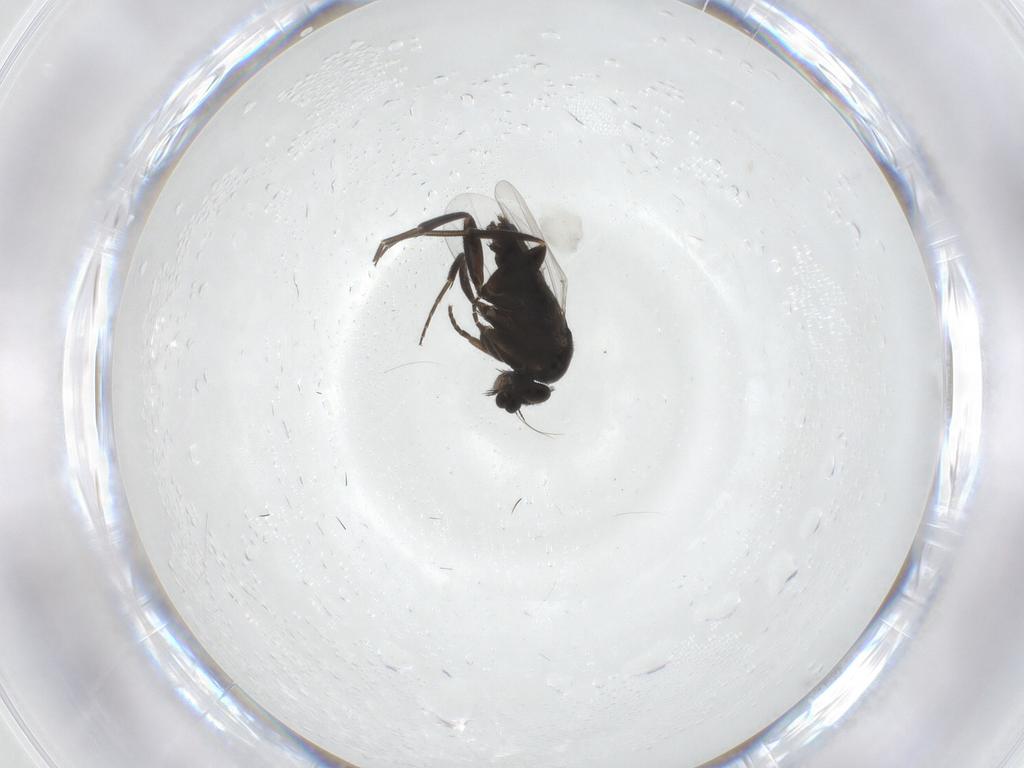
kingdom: Animalia
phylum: Arthropoda
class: Insecta
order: Diptera
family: Phoridae
